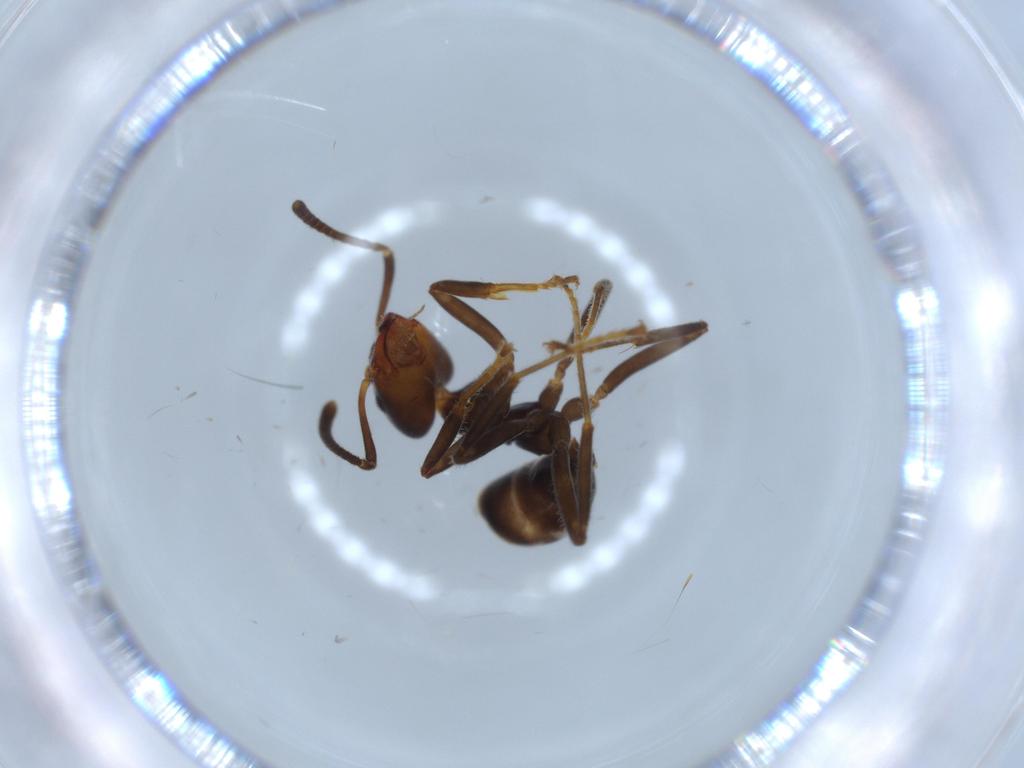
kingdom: Animalia
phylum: Arthropoda
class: Insecta
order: Hymenoptera
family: Formicidae
